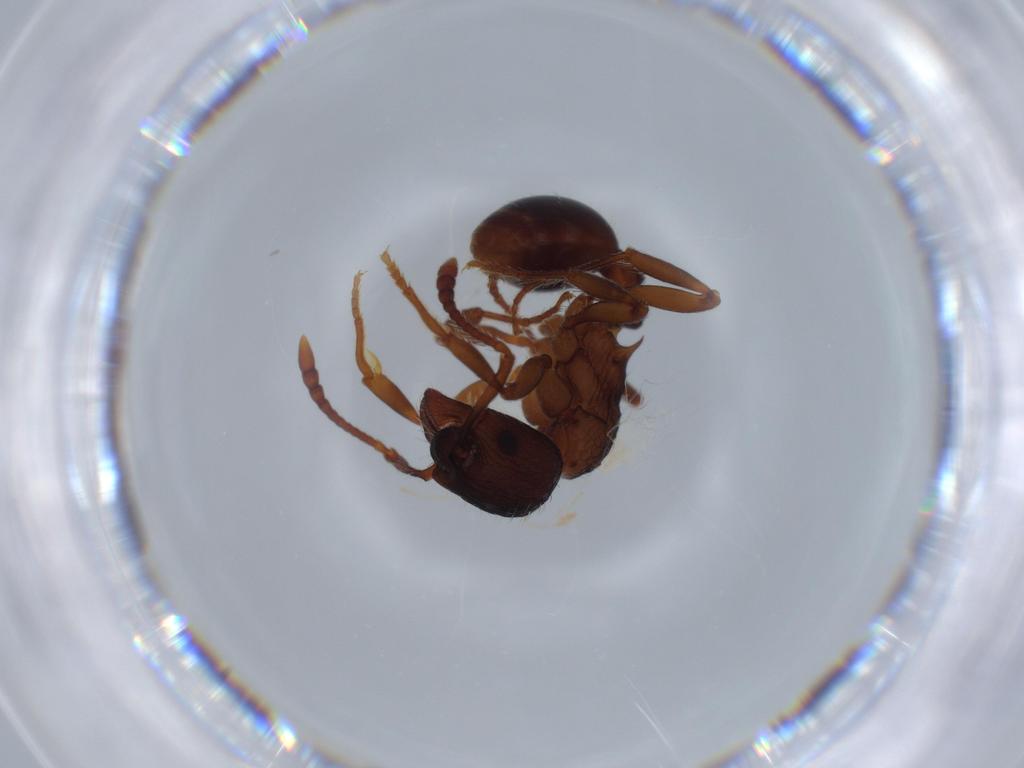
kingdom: Animalia
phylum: Arthropoda
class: Insecta
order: Hymenoptera
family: Formicidae
